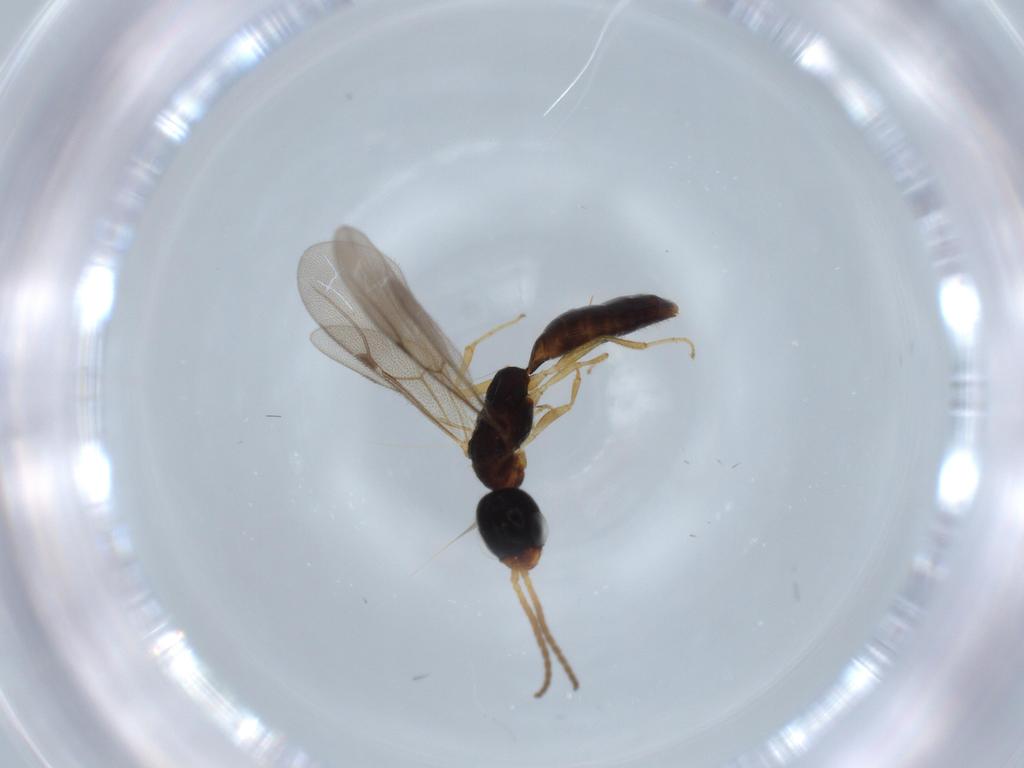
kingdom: Animalia
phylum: Arthropoda
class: Insecta
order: Hymenoptera
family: Bethylidae
